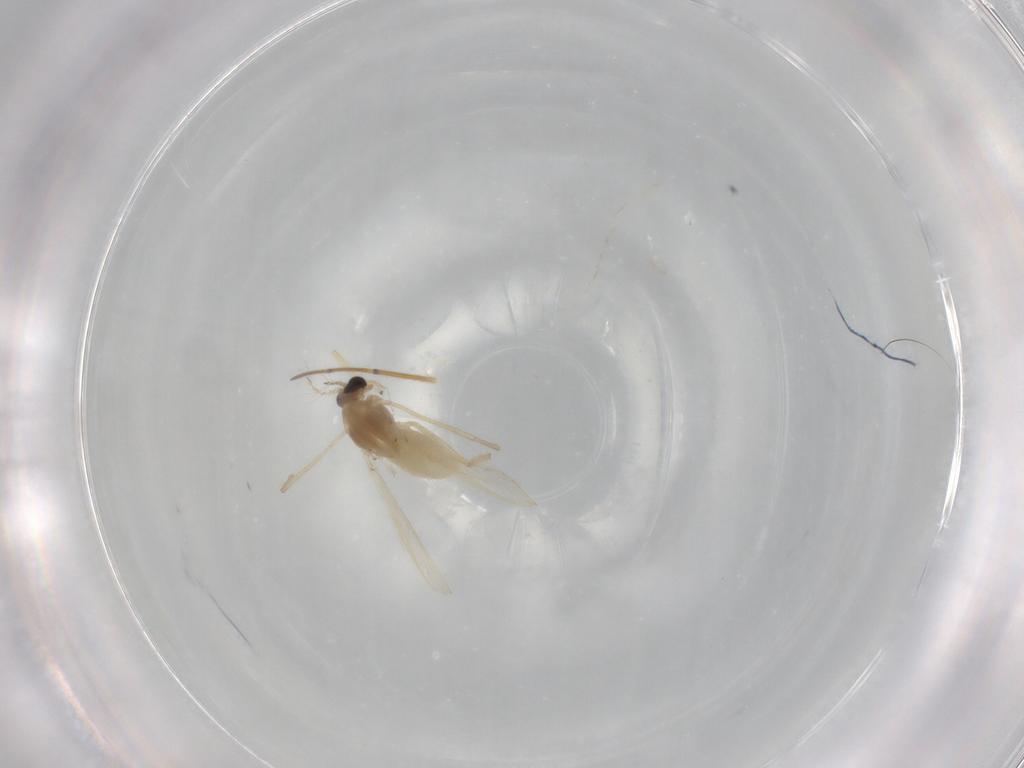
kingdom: Animalia
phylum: Arthropoda
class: Insecta
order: Diptera
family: Chironomidae
